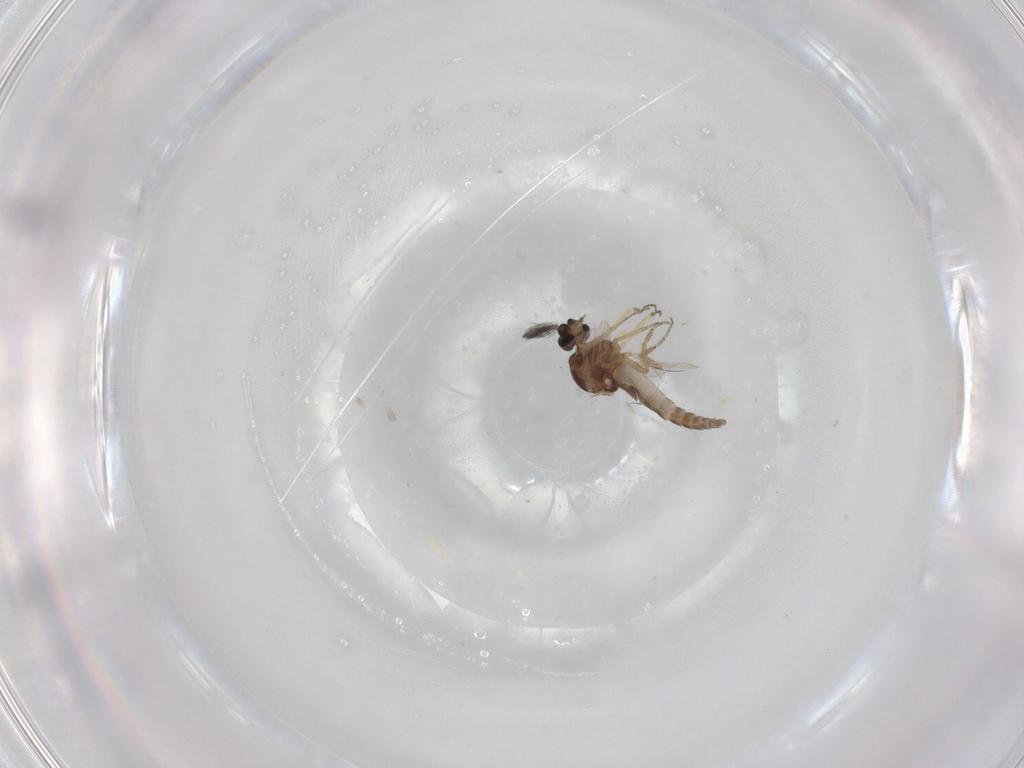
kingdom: Animalia
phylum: Arthropoda
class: Insecta
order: Diptera
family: Ceratopogonidae
